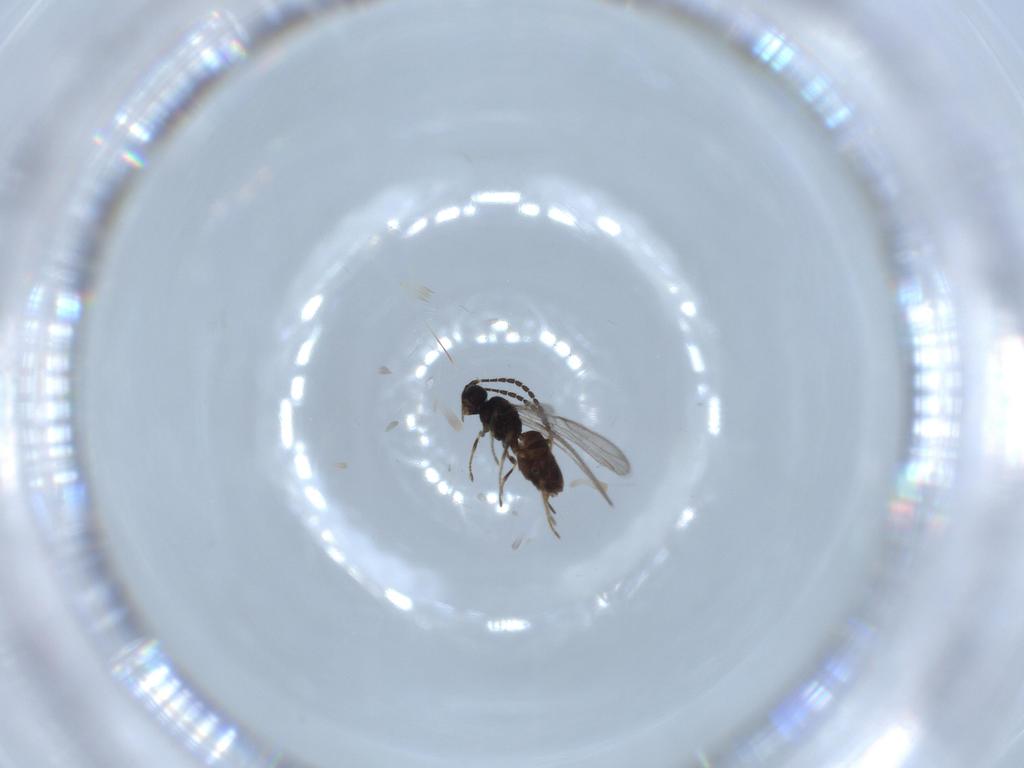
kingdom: Animalia
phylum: Arthropoda
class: Insecta
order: Hymenoptera
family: Braconidae
